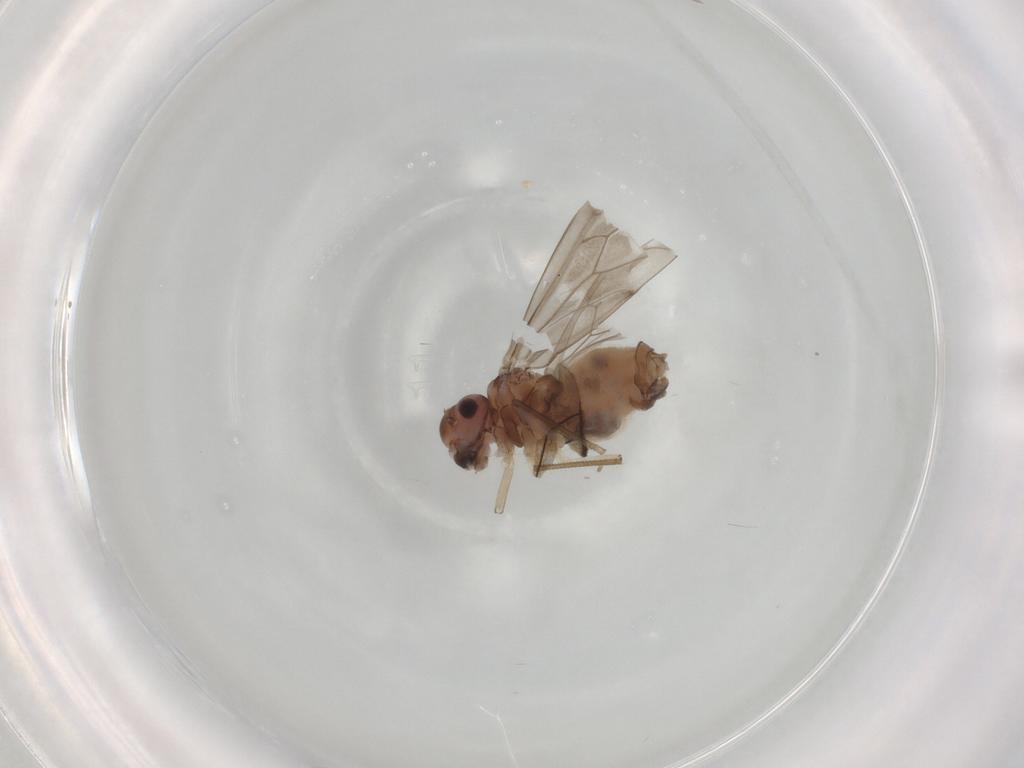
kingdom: Animalia
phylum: Arthropoda
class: Insecta
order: Psocodea
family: Peripsocidae
